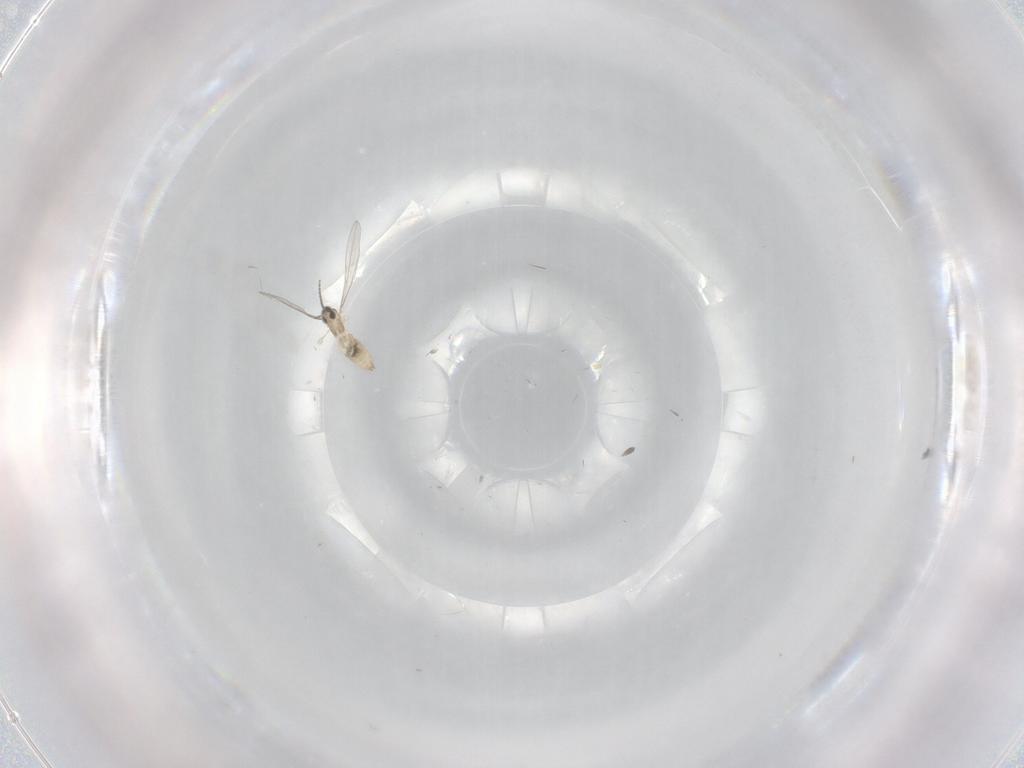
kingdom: Animalia
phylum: Arthropoda
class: Insecta
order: Diptera
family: Cecidomyiidae
